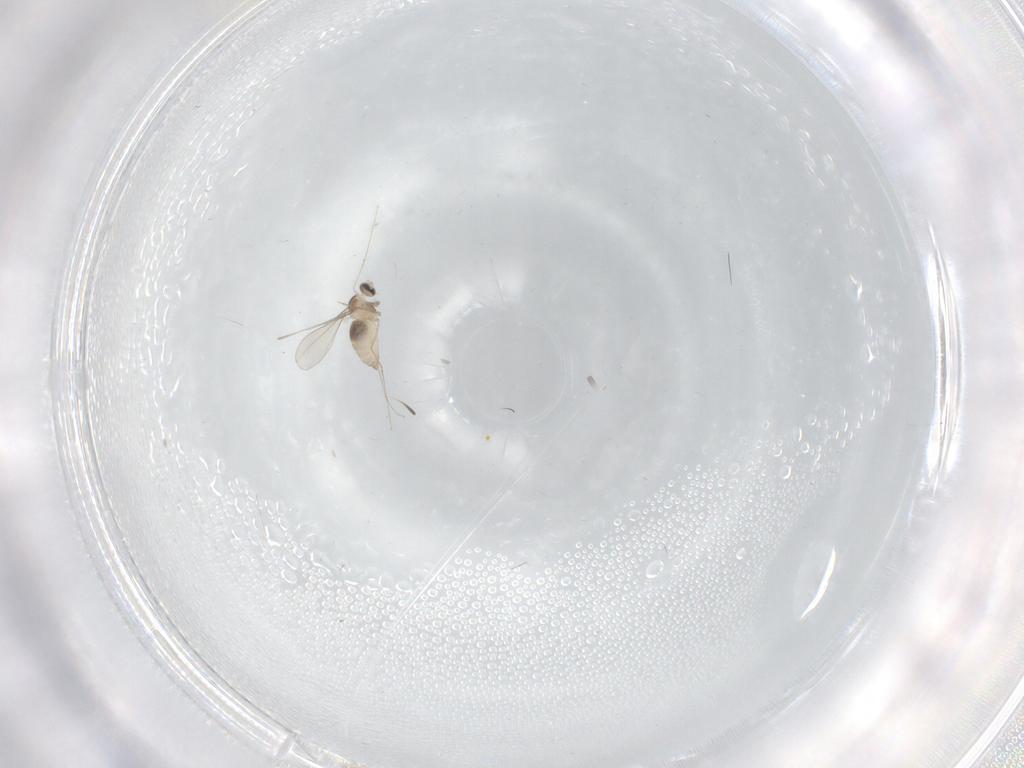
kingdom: Animalia
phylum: Arthropoda
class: Insecta
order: Diptera
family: Cecidomyiidae
